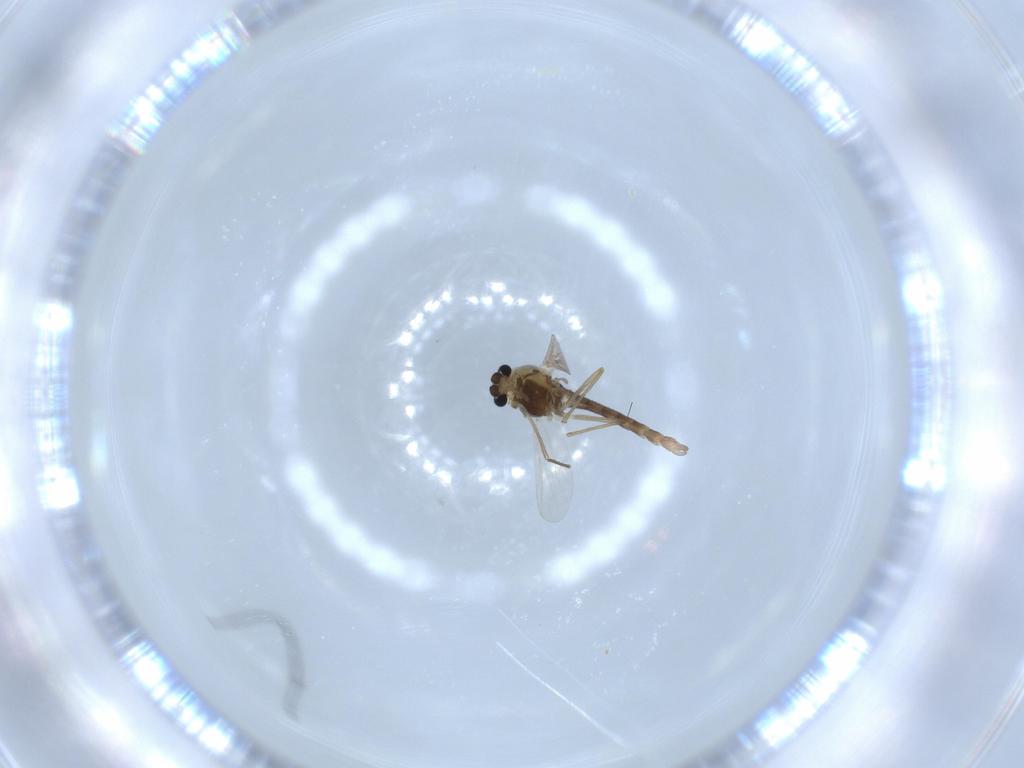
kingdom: Animalia
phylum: Arthropoda
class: Insecta
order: Diptera
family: Chironomidae
